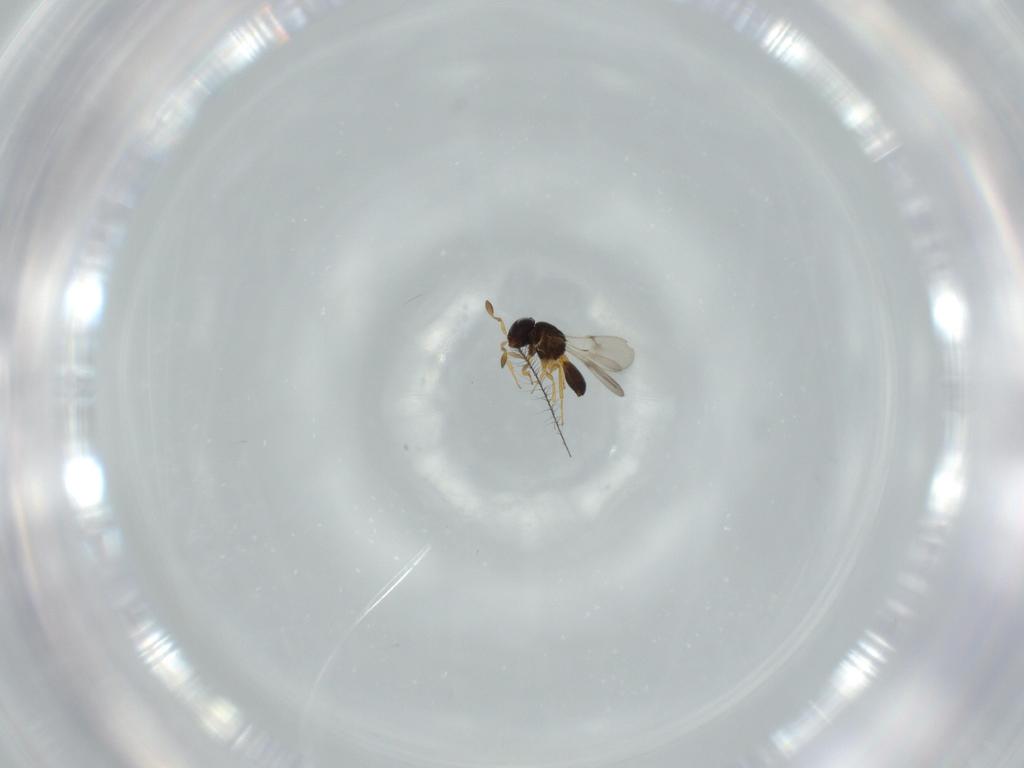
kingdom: Animalia
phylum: Arthropoda
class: Insecta
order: Hymenoptera
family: Scelionidae
